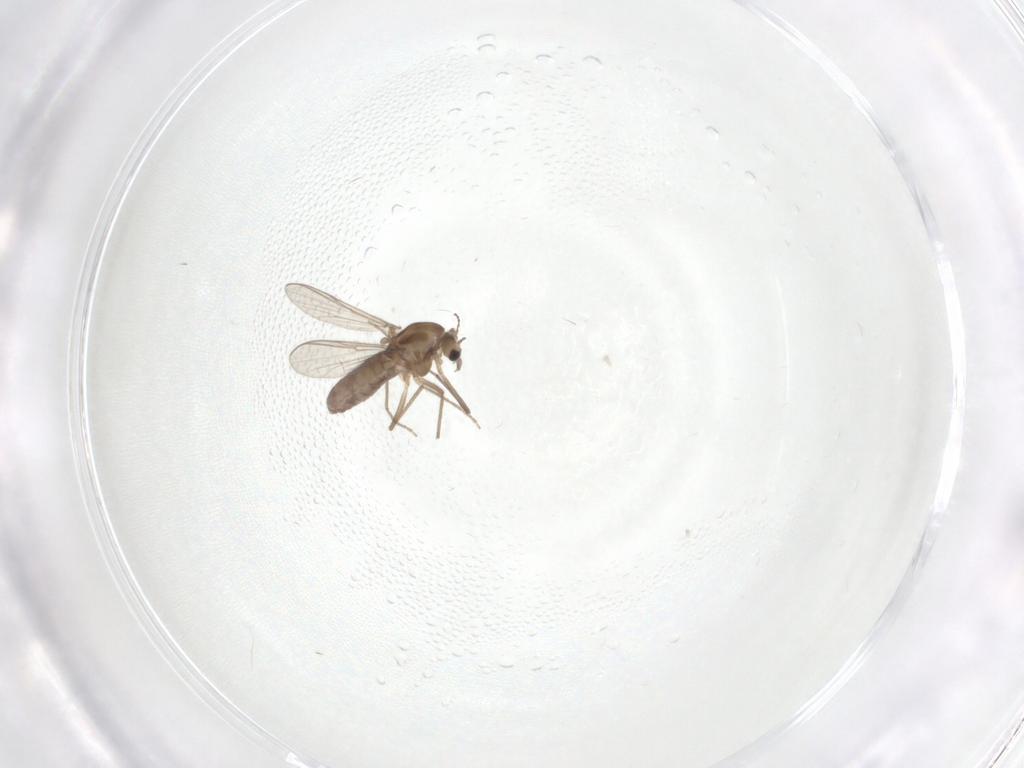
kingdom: Animalia
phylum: Arthropoda
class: Insecta
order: Diptera
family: Chironomidae
